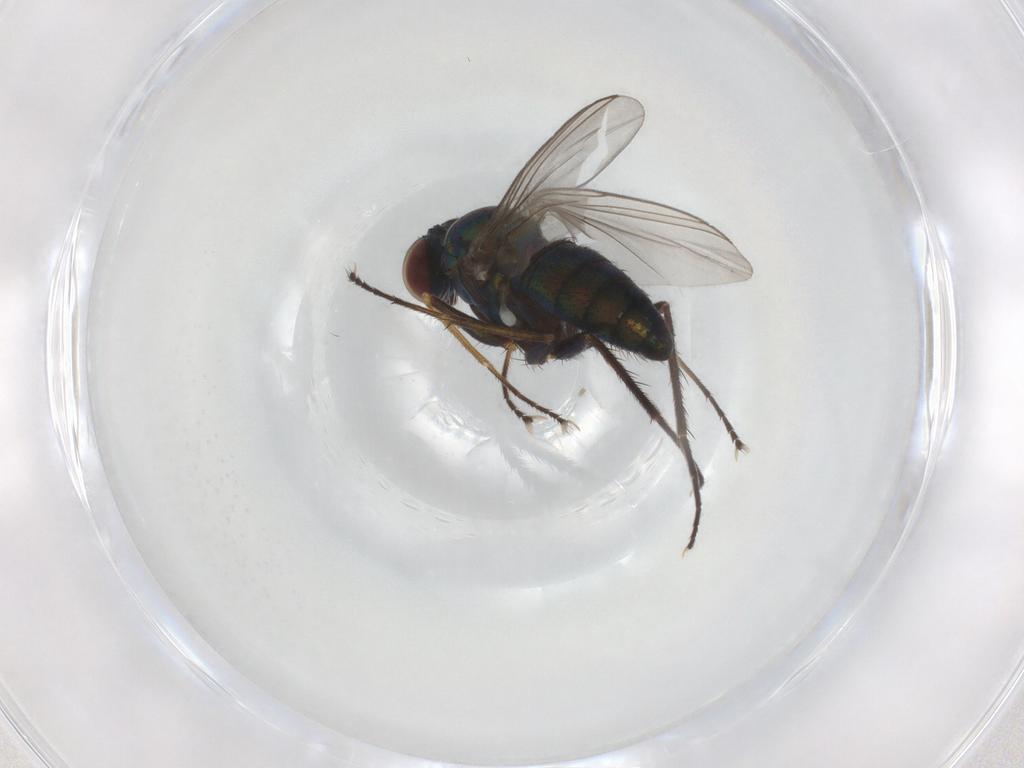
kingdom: Animalia
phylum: Arthropoda
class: Insecta
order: Diptera
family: Dolichopodidae
